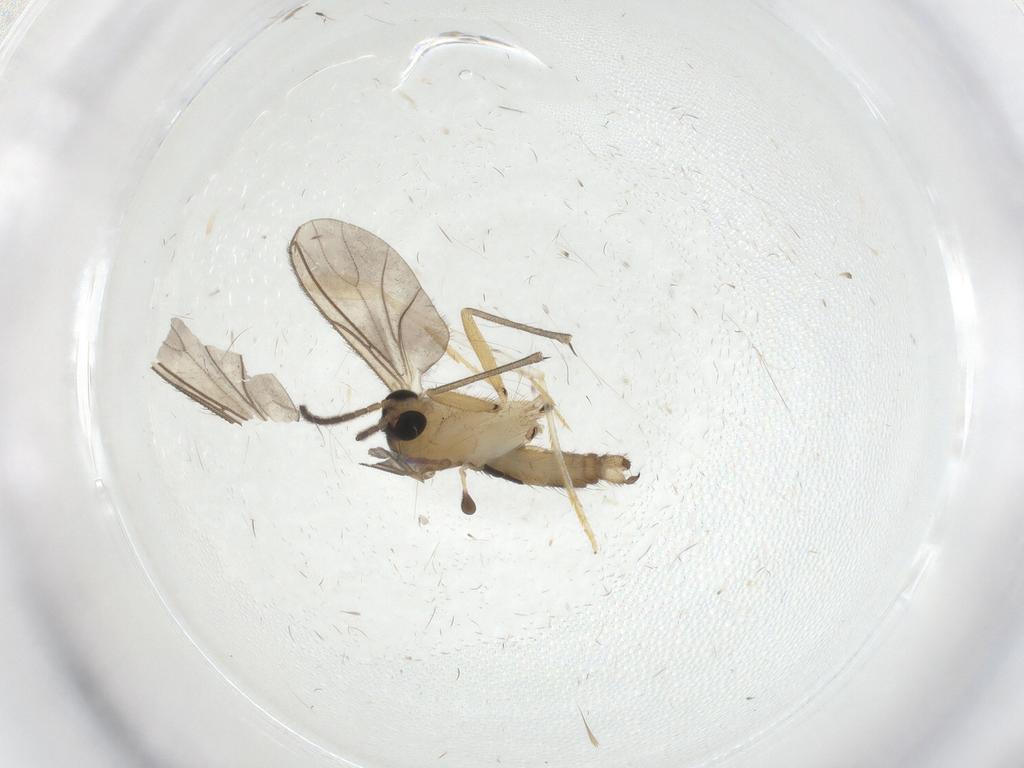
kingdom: Animalia
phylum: Arthropoda
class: Insecta
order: Diptera
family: Sciaridae
